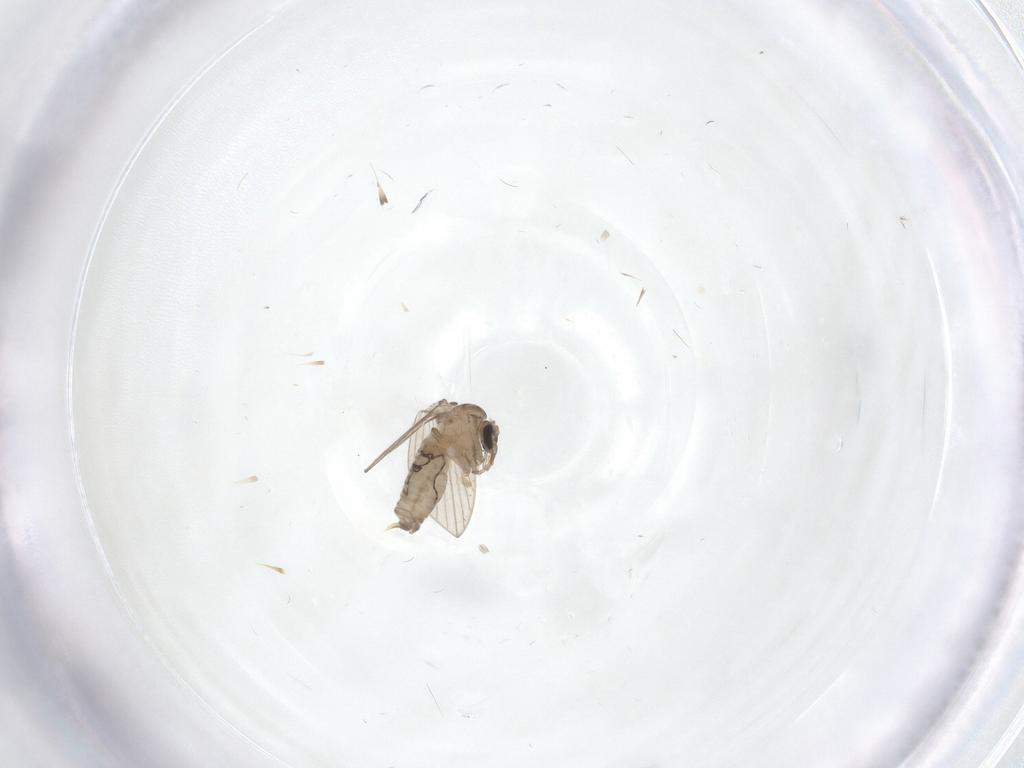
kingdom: Animalia
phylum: Arthropoda
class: Insecta
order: Diptera
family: Psychodidae
